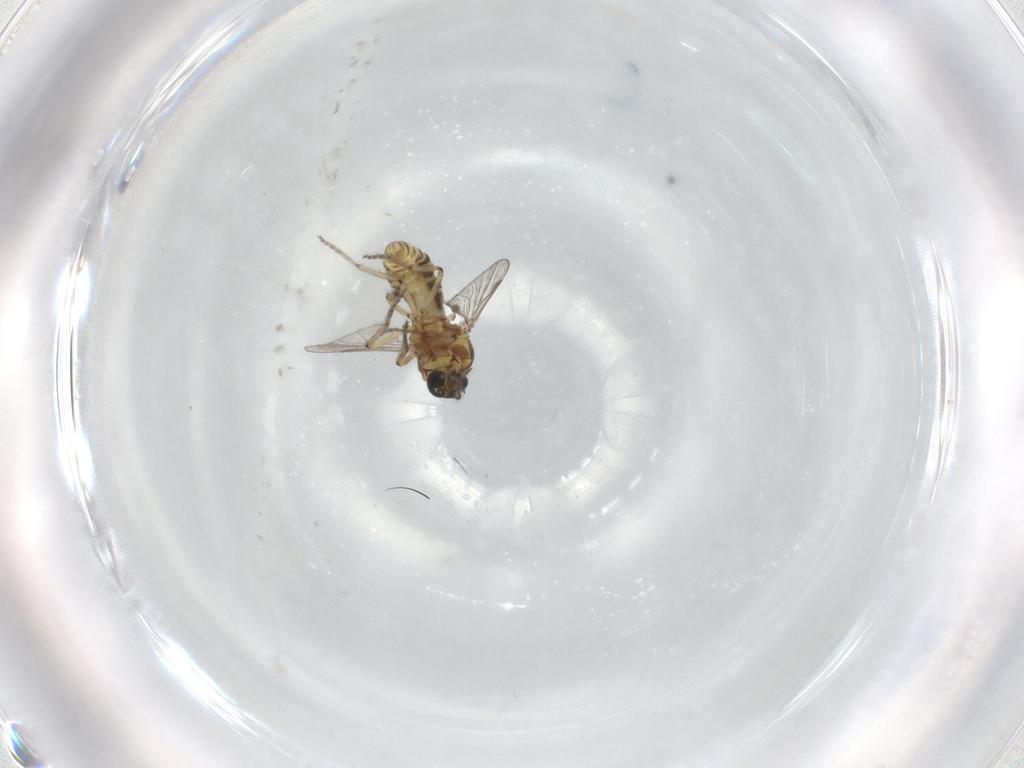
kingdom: Animalia
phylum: Arthropoda
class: Insecta
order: Diptera
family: Ceratopogonidae
